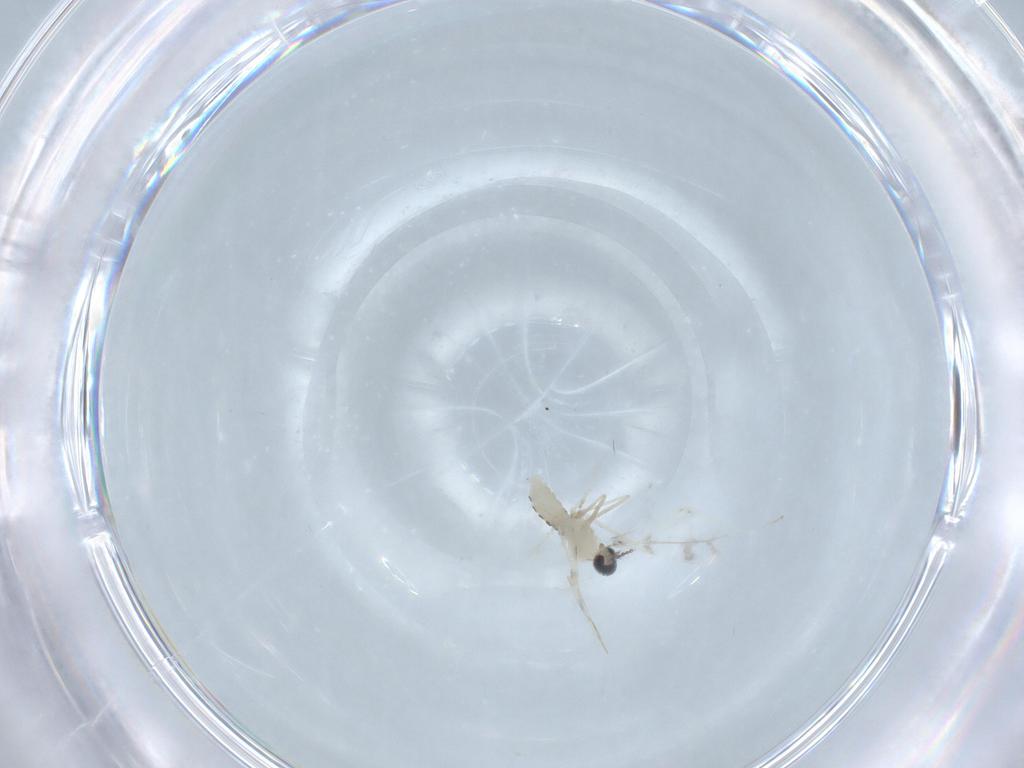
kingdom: Animalia
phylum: Arthropoda
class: Insecta
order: Diptera
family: Cecidomyiidae
